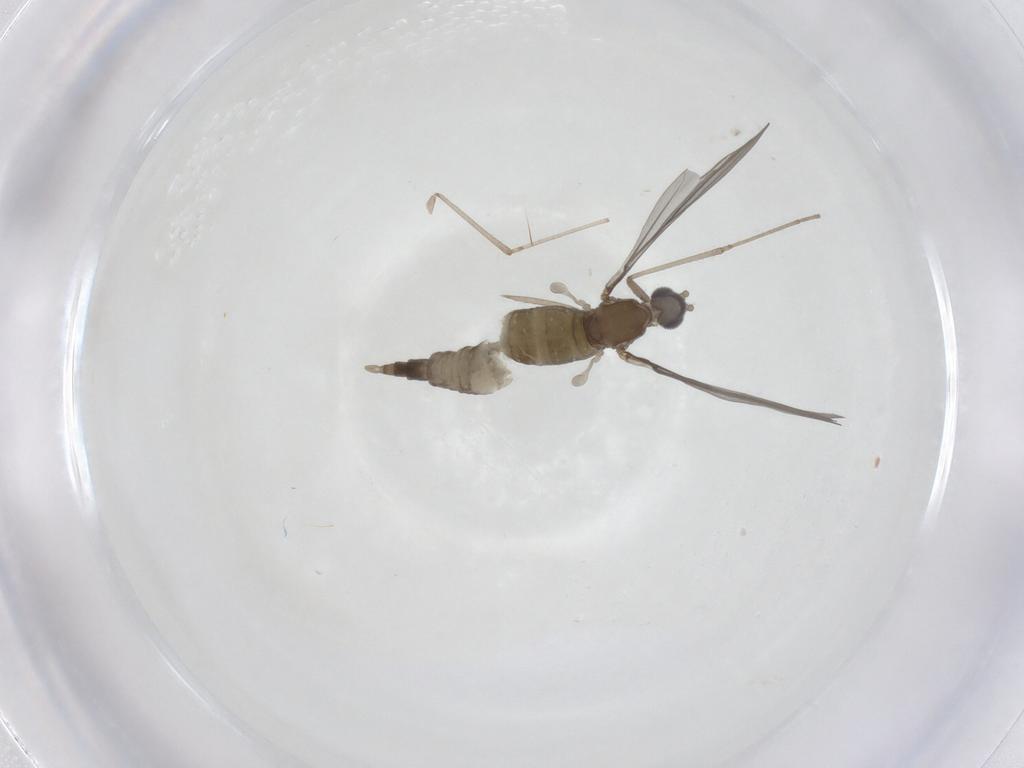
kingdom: Animalia
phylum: Arthropoda
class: Insecta
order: Diptera
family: Cecidomyiidae
